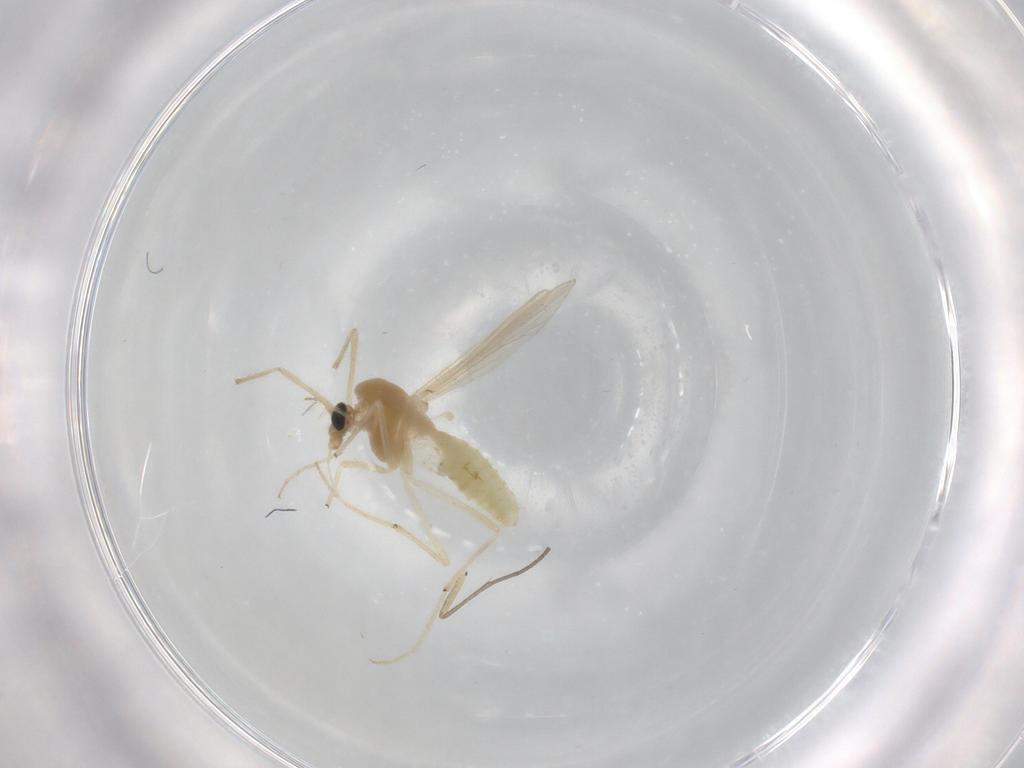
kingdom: Animalia
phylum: Arthropoda
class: Insecta
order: Diptera
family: Chironomidae
